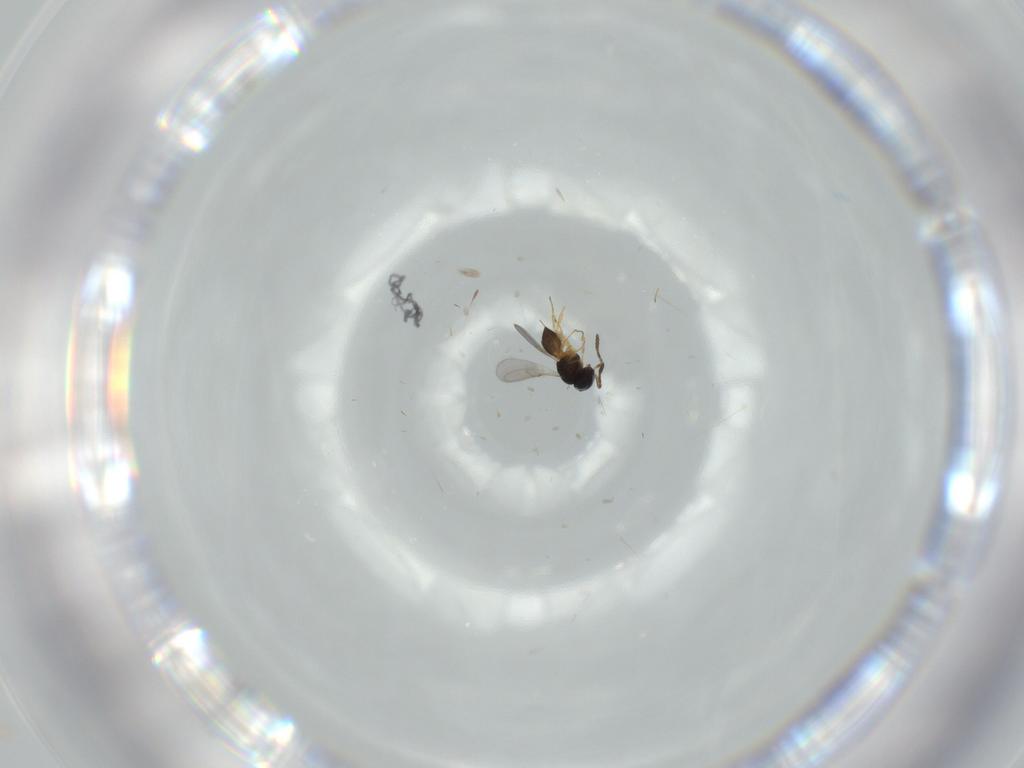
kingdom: Animalia
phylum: Arthropoda
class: Insecta
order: Hymenoptera
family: Scelionidae
